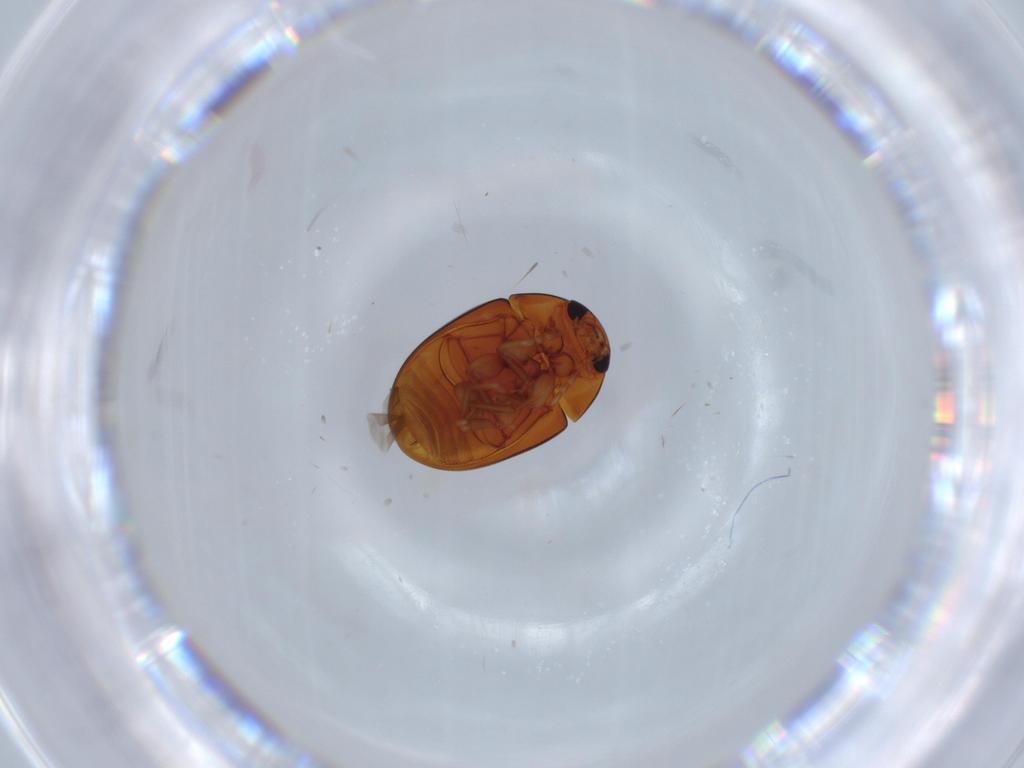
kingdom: Animalia
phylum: Arthropoda
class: Insecta
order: Coleoptera
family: Phalacridae
